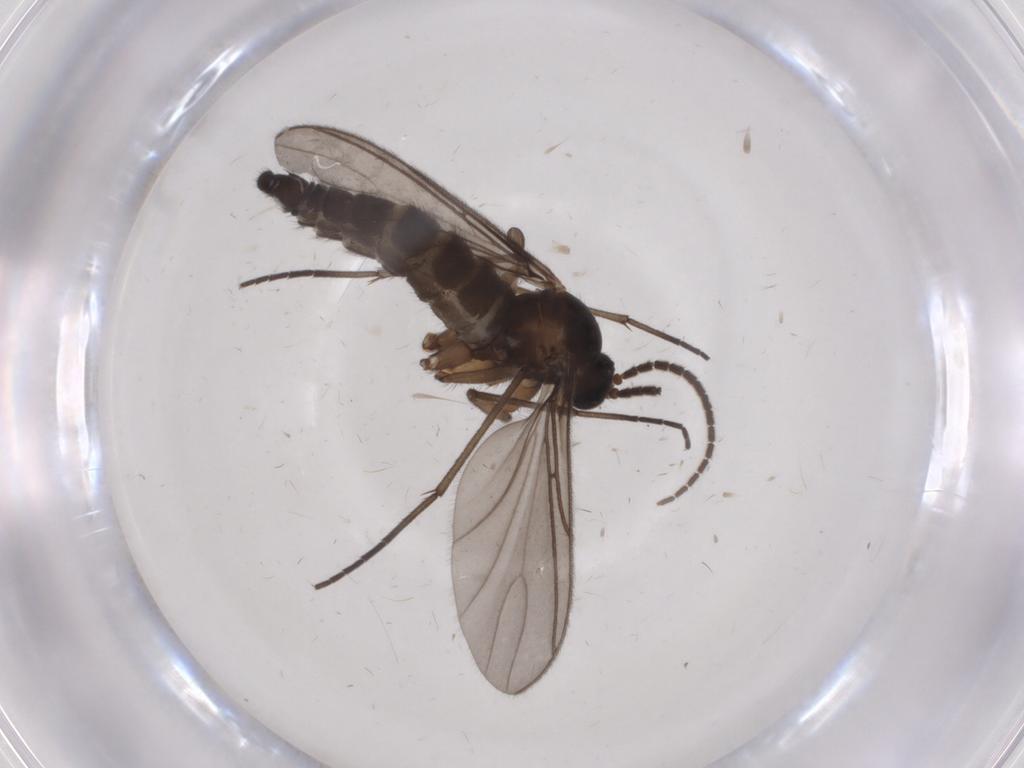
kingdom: Animalia
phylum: Arthropoda
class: Insecta
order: Diptera
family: Sciaridae
